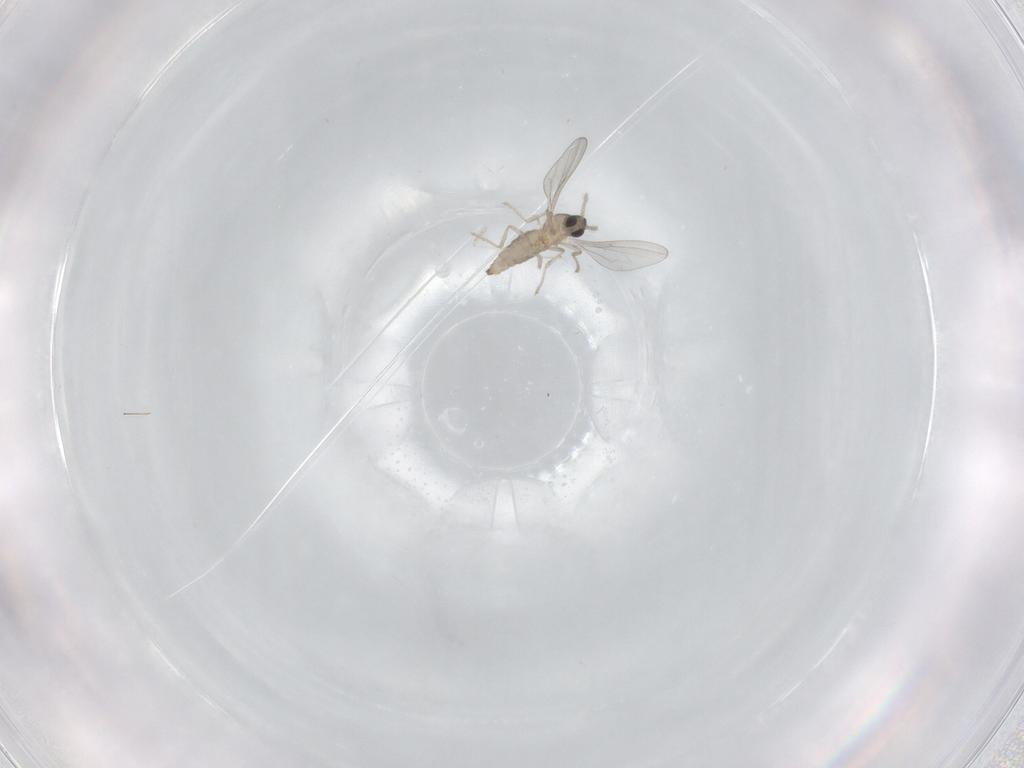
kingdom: Animalia
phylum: Arthropoda
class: Insecta
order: Diptera
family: Cecidomyiidae
